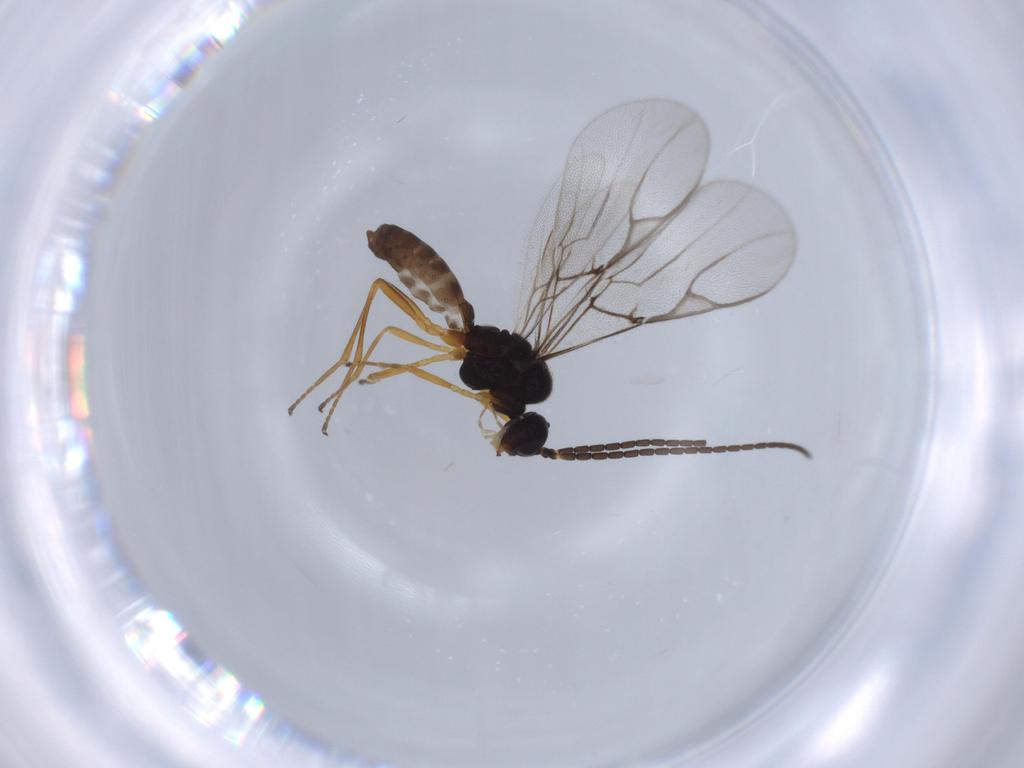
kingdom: Animalia
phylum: Arthropoda
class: Insecta
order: Hymenoptera
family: Braconidae
